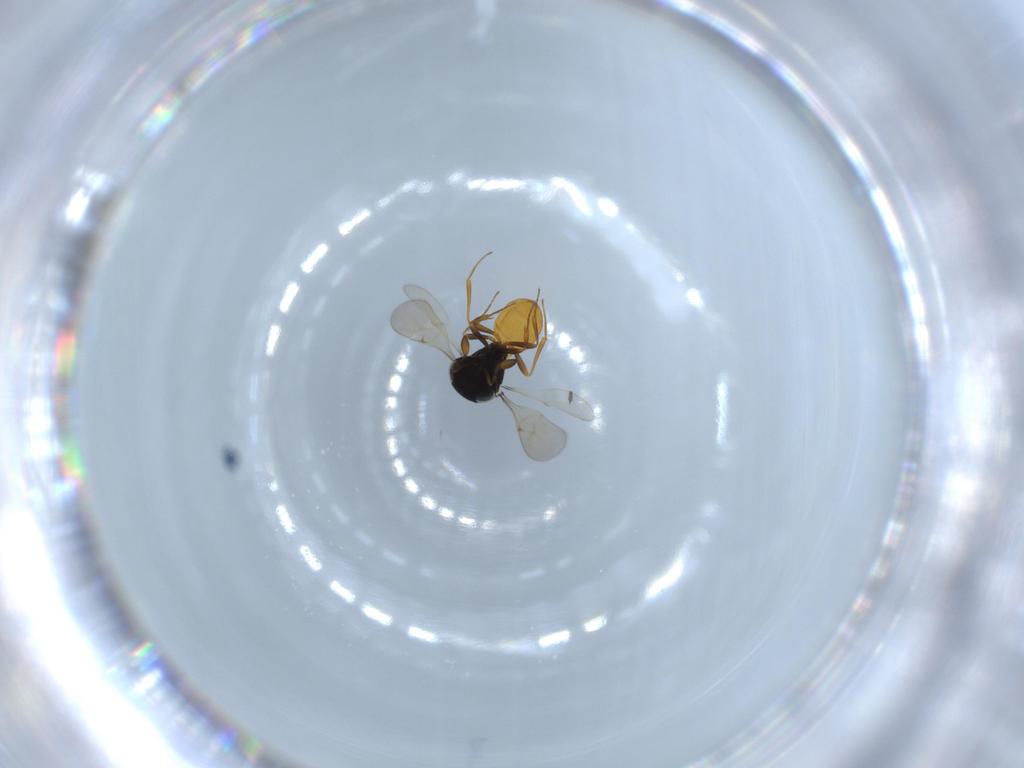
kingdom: Animalia
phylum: Arthropoda
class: Insecta
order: Hymenoptera
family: Scelionidae
